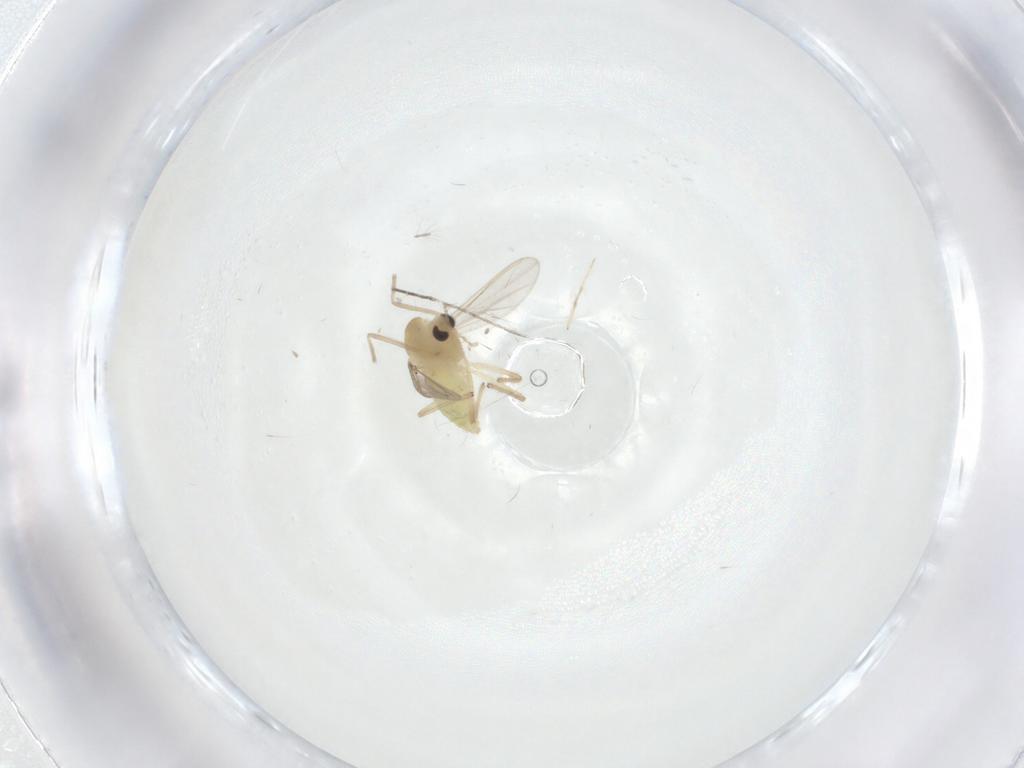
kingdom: Animalia
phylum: Arthropoda
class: Insecta
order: Diptera
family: Chironomidae
